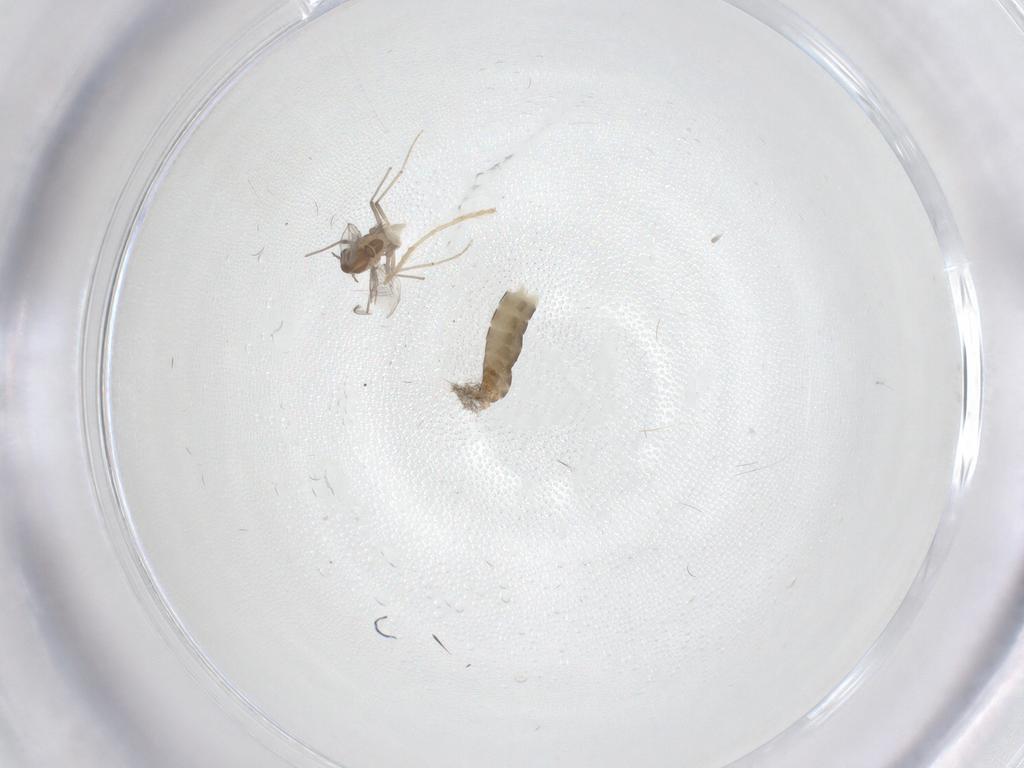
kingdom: Animalia
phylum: Arthropoda
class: Insecta
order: Diptera
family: Chironomidae
